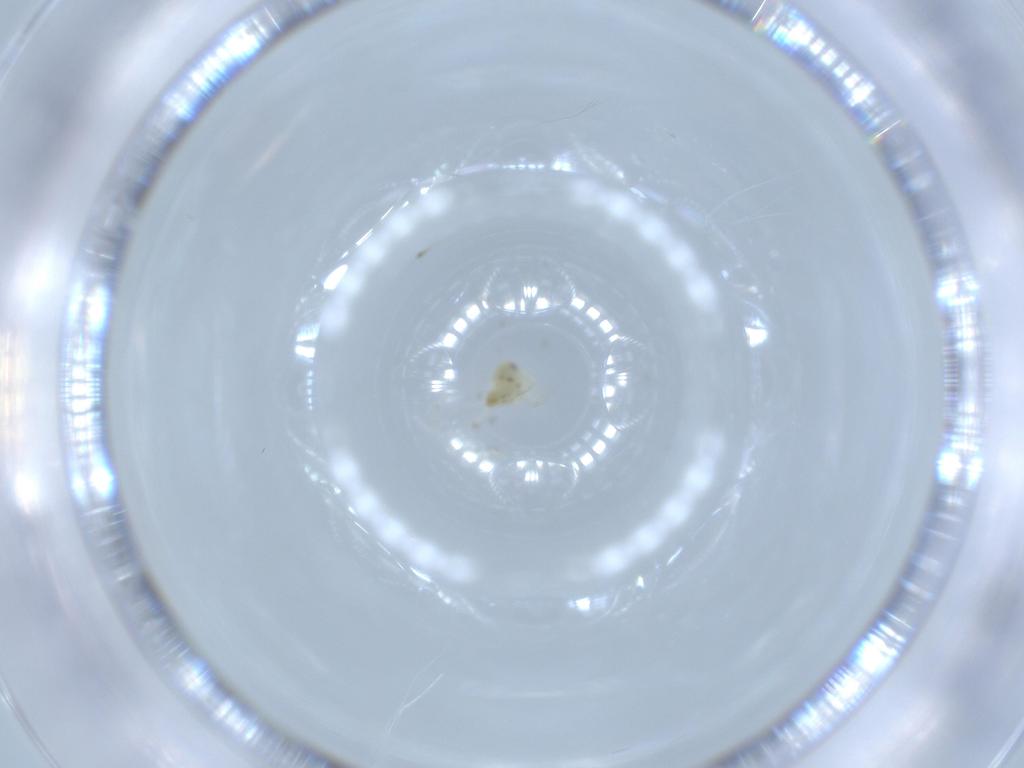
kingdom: Animalia
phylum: Arthropoda
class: Insecta
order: Hemiptera
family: Aleyrodidae
